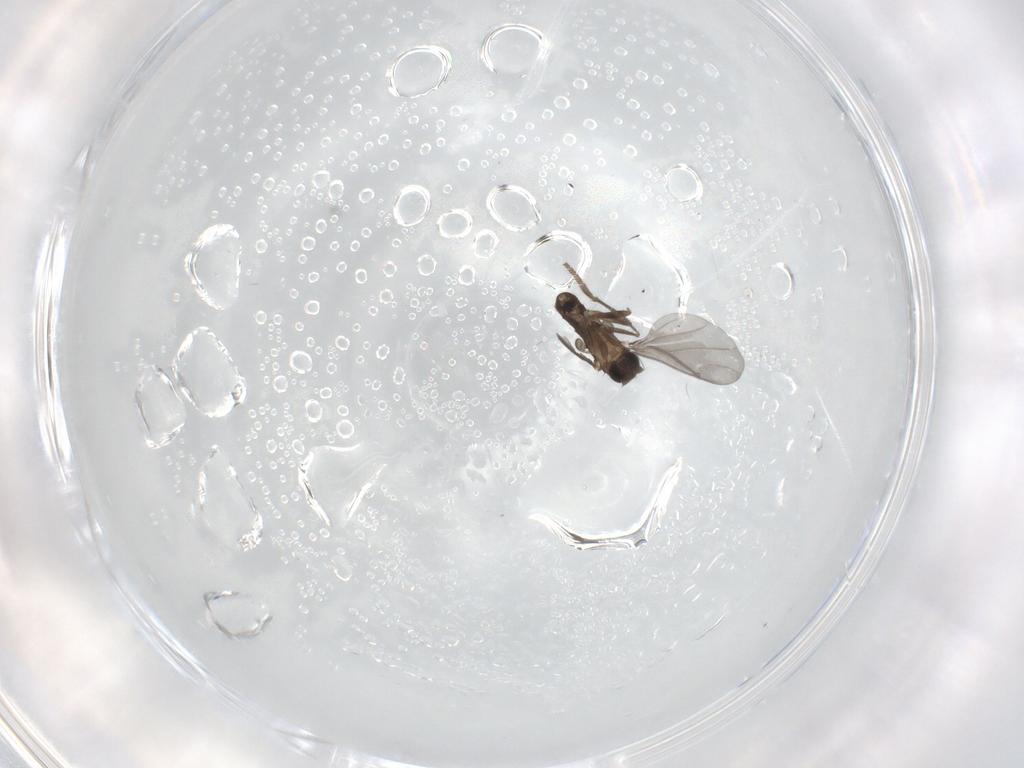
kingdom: Animalia
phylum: Arthropoda
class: Insecta
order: Diptera
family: Phoridae
